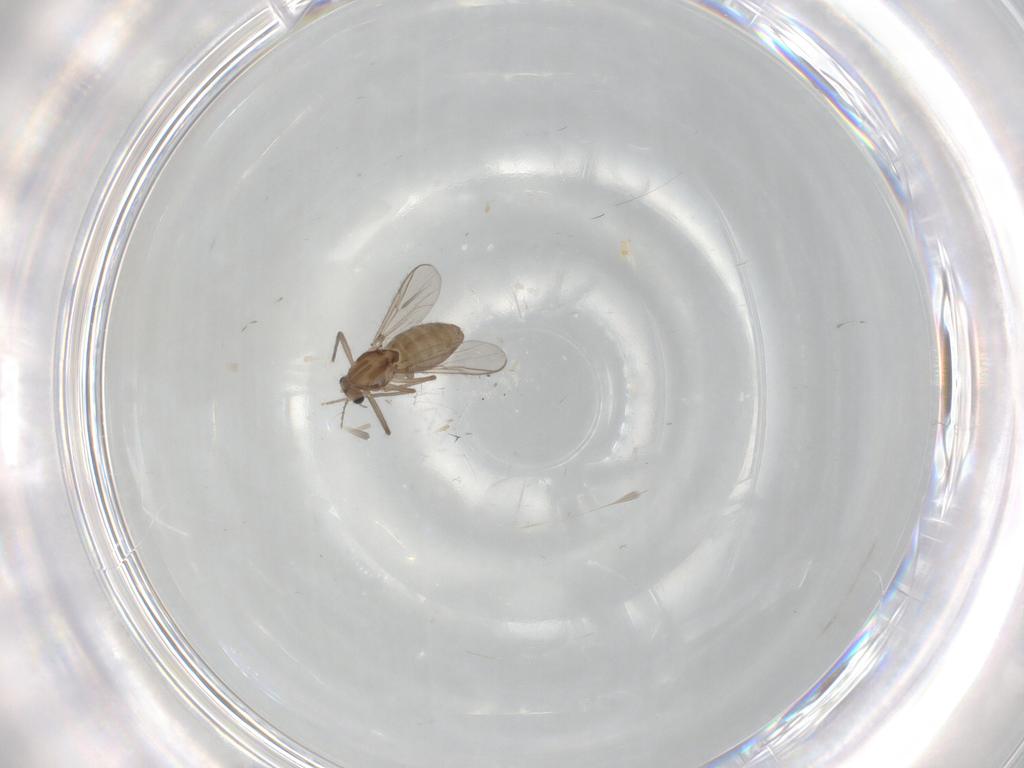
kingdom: Animalia
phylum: Arthropoda
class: Insecta
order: Diptera
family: Chironomidae
